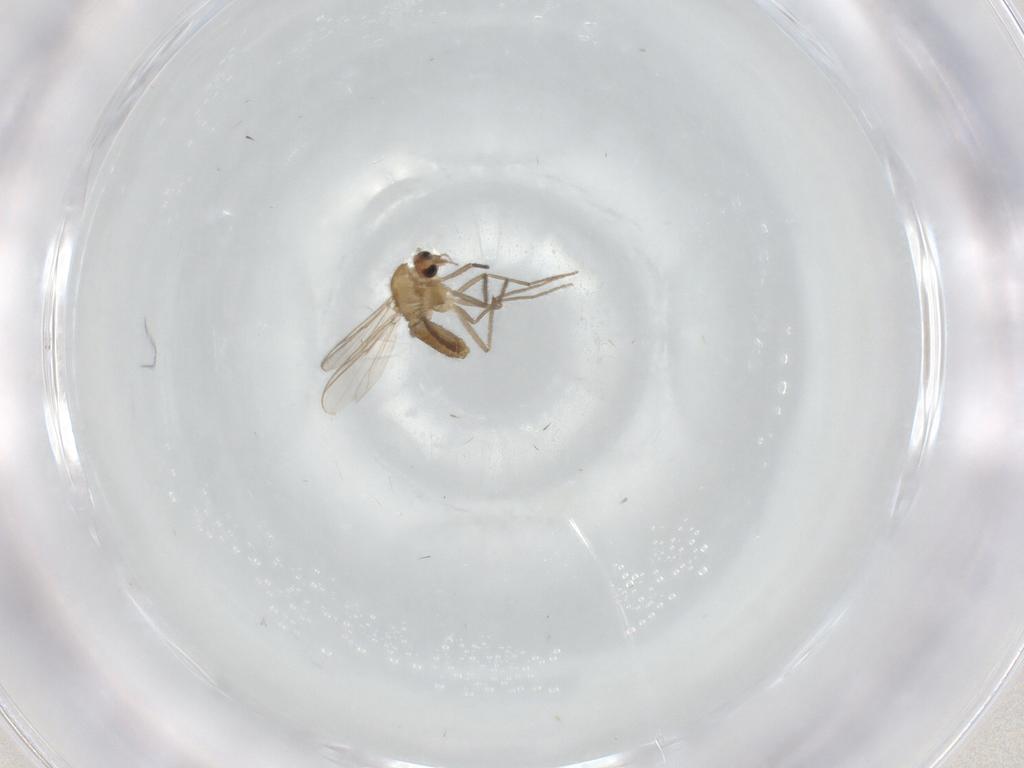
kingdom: Animalia
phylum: Arthropoda
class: Insecta
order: Diptera
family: Chironomidae
